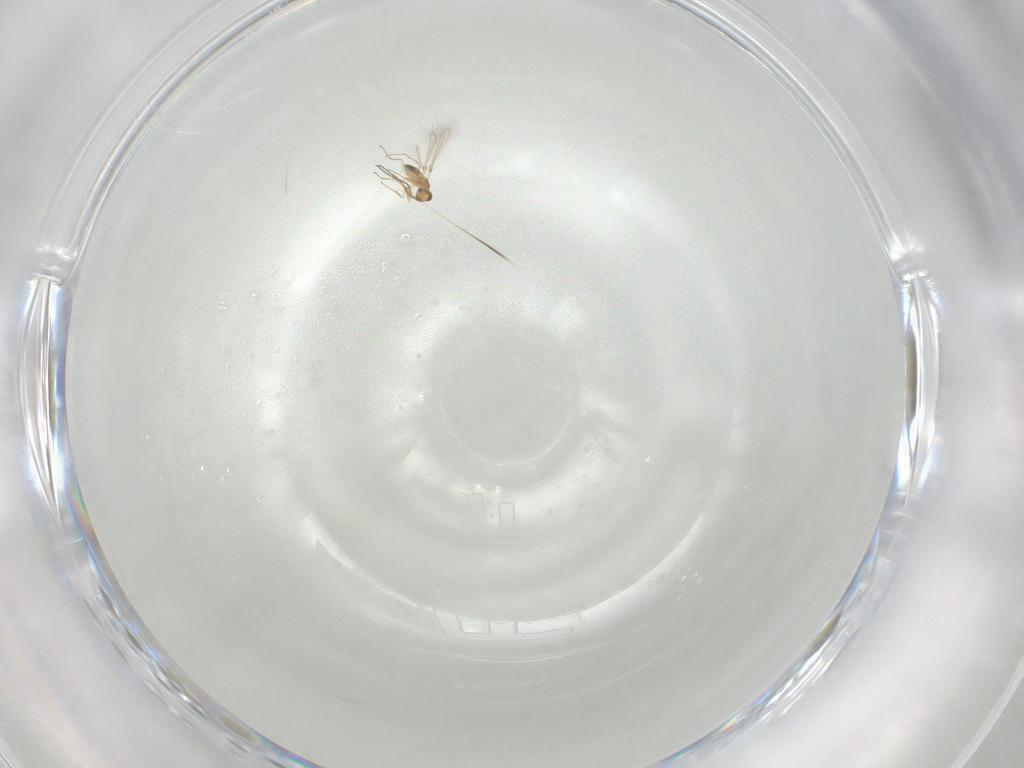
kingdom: Animalia
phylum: Arthropoda
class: Insecta
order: Hymenoptera
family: Mymaridae
